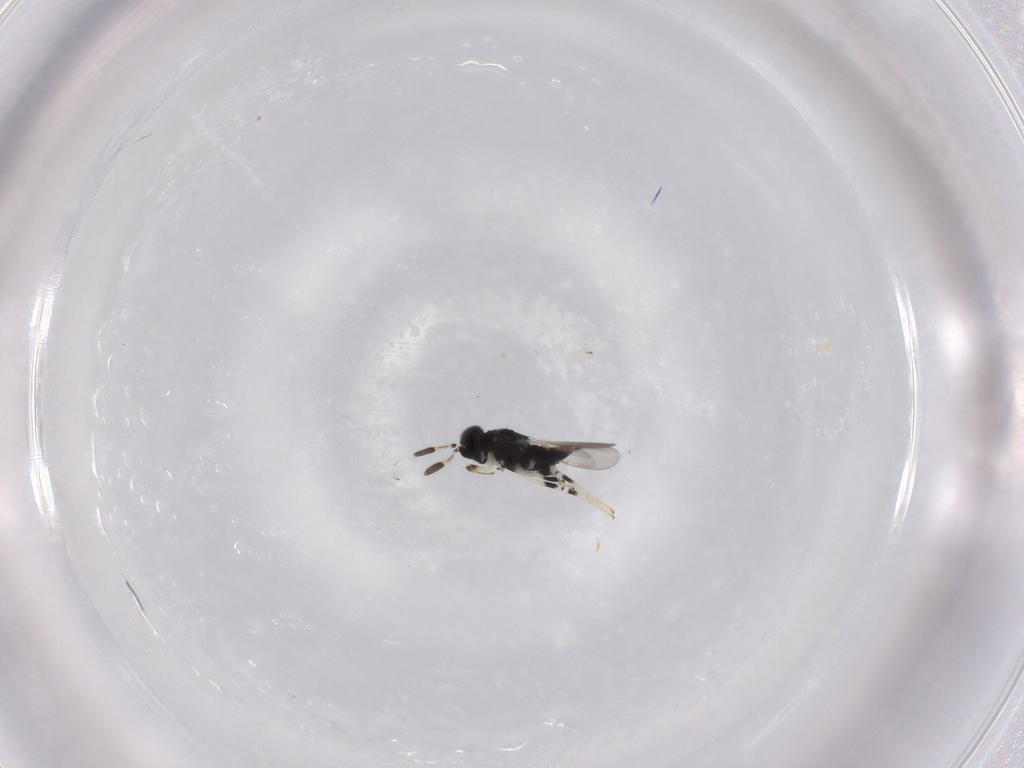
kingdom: Animalia
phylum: Arthropoda
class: Insecta
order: Hymenoptera
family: Encyrtidae
